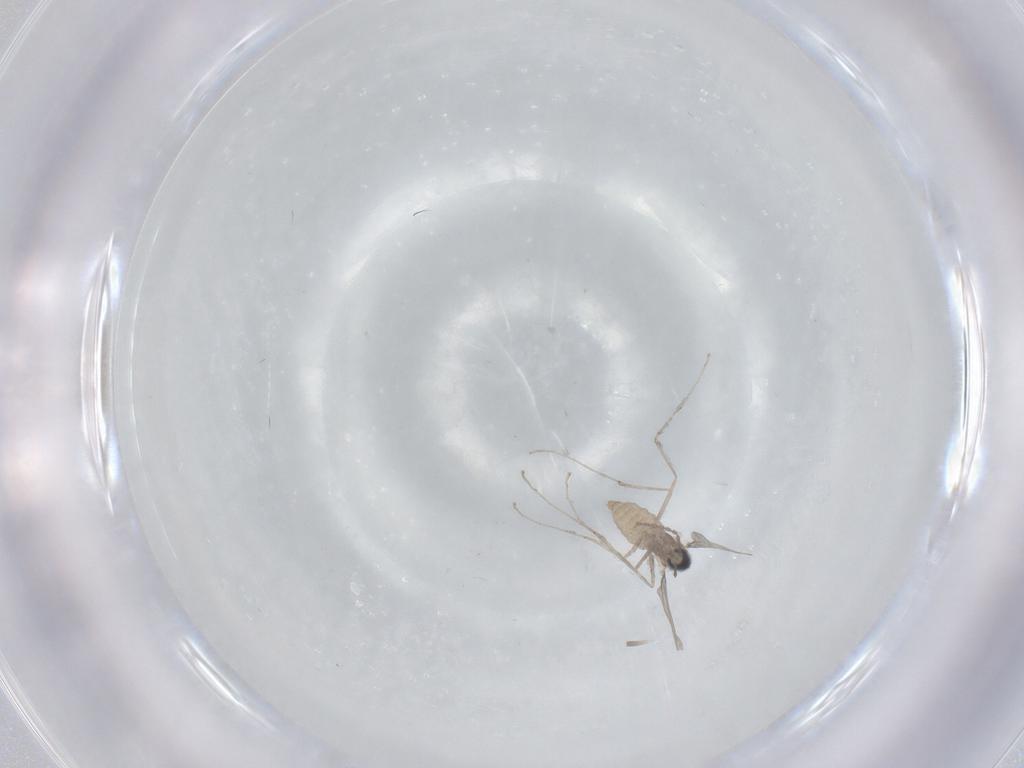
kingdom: Animalia
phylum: Arthropoda
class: Insecta
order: Diptera
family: Cecidomyiidae
